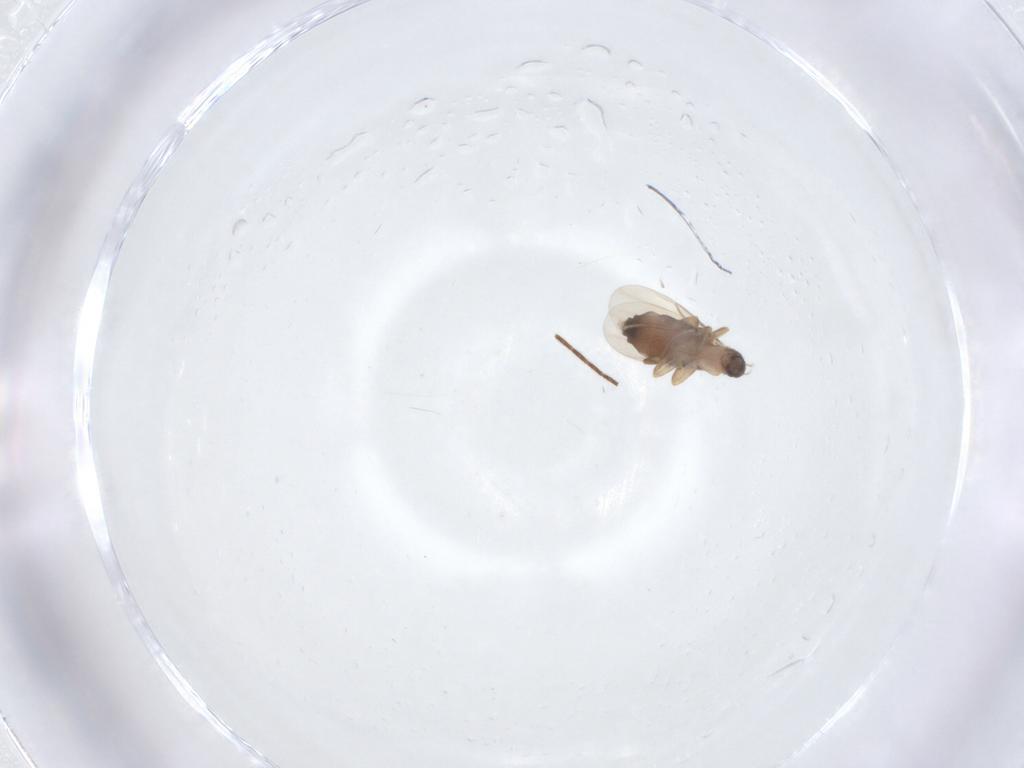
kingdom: Animalia
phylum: Arthropoda
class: Insecta
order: Diptera
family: Phoridae
